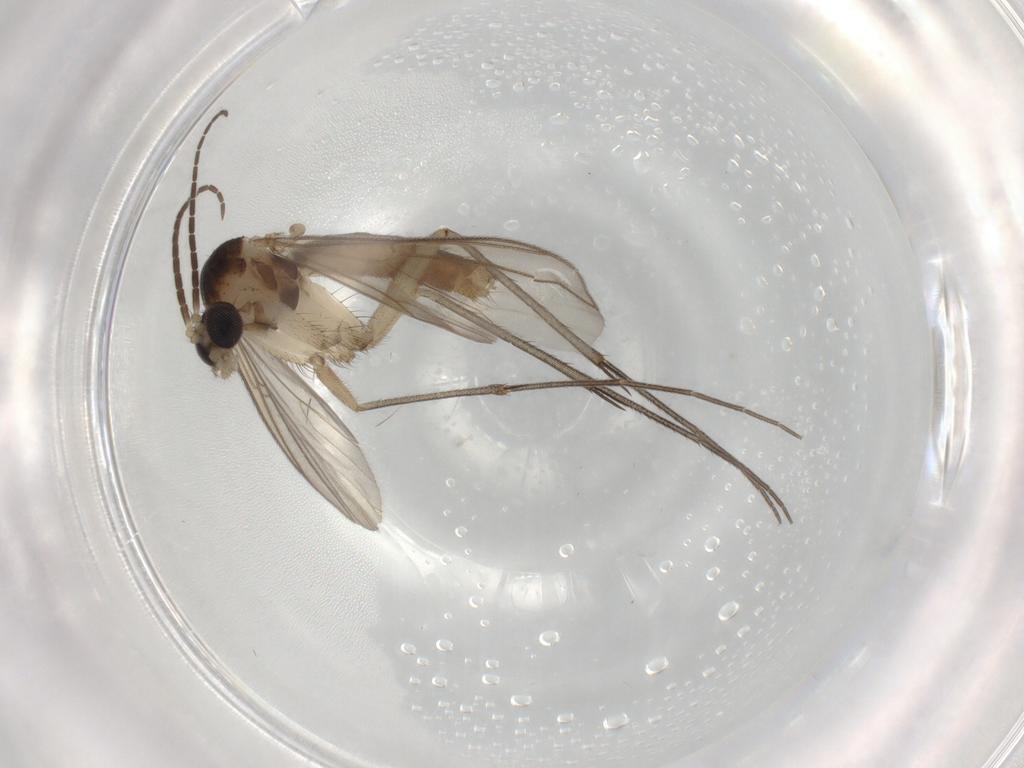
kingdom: Animalia
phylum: Arthropoda
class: Insecta
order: Diptera
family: Mycetophilidae
